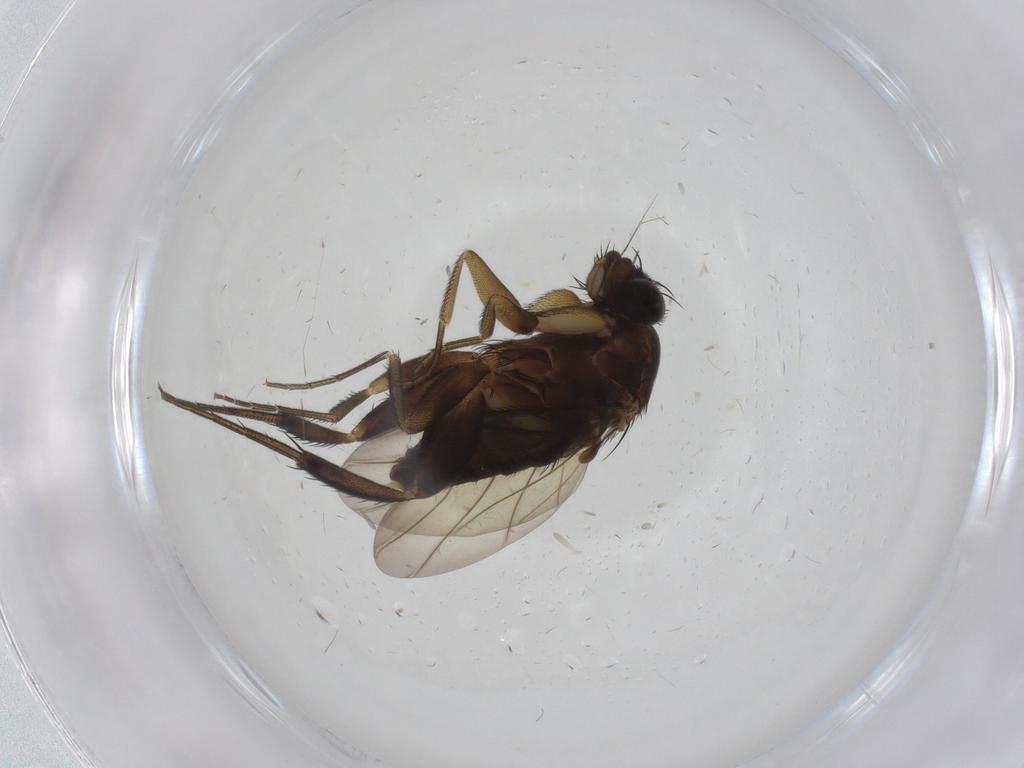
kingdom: Animalia
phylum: Arthropoda
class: Insecta
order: Diptera
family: Phoridae
